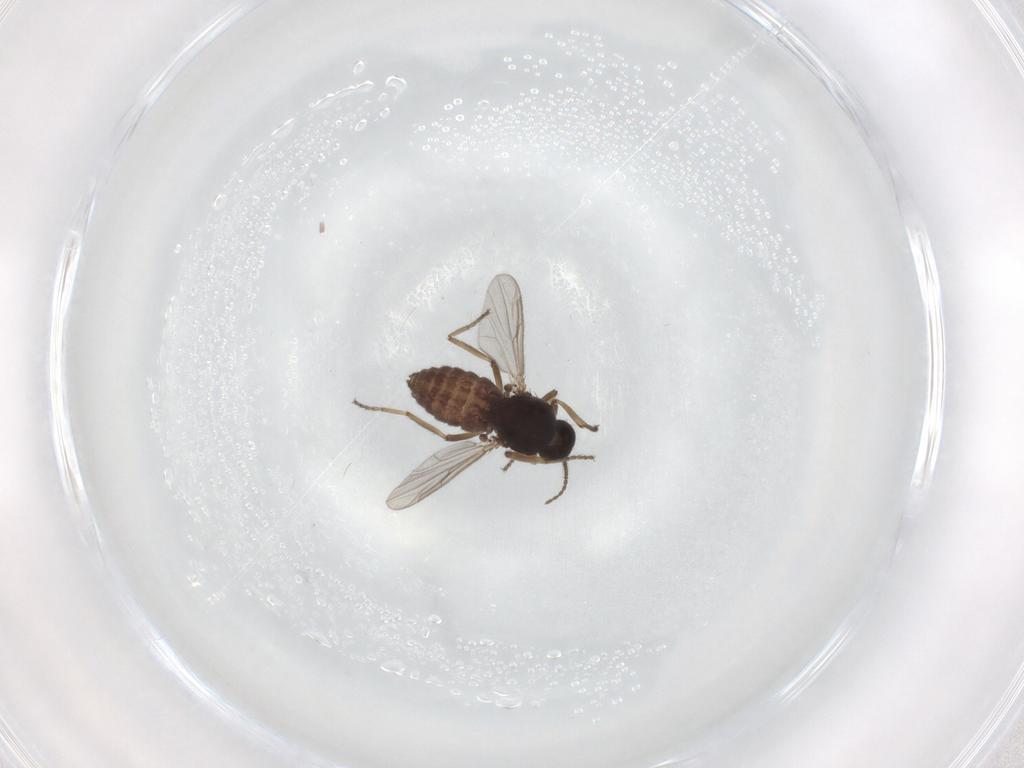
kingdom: Animalia
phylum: Arthropoda
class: Insecta
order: Diptera
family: Ceratopogonidae
